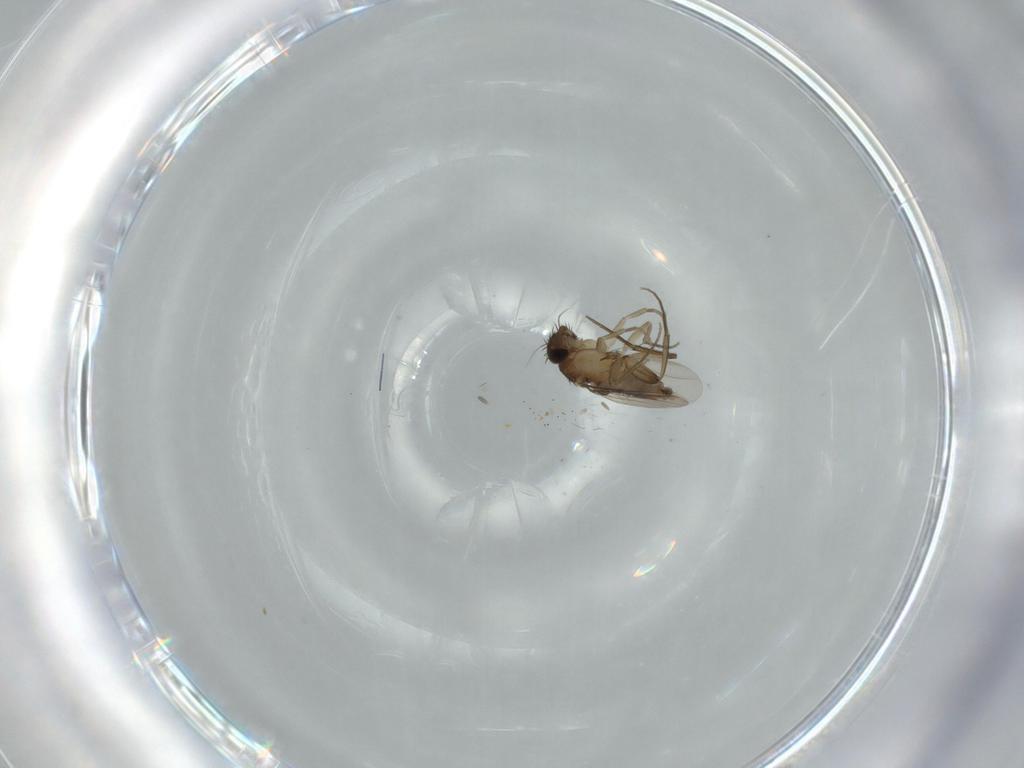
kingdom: Animalia
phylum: Arthropoda
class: Insecta
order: Diptera
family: Phoridae
